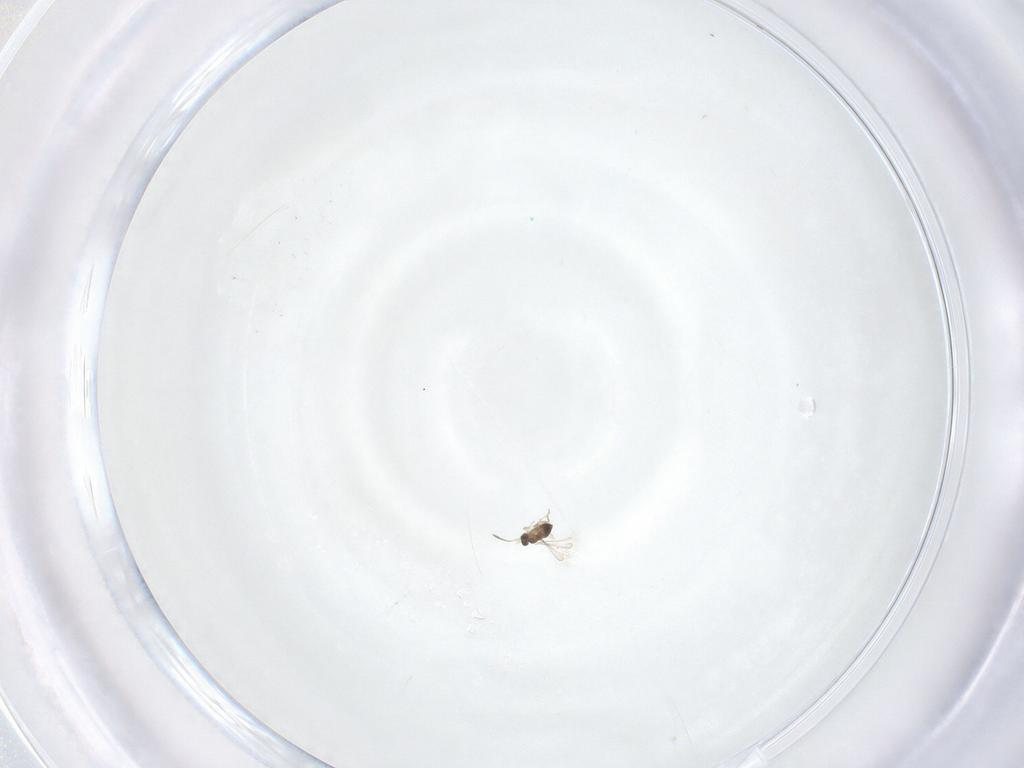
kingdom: Animalia
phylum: Arthropoda
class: Insecta
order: Hymenoptera
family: Mymaridae
